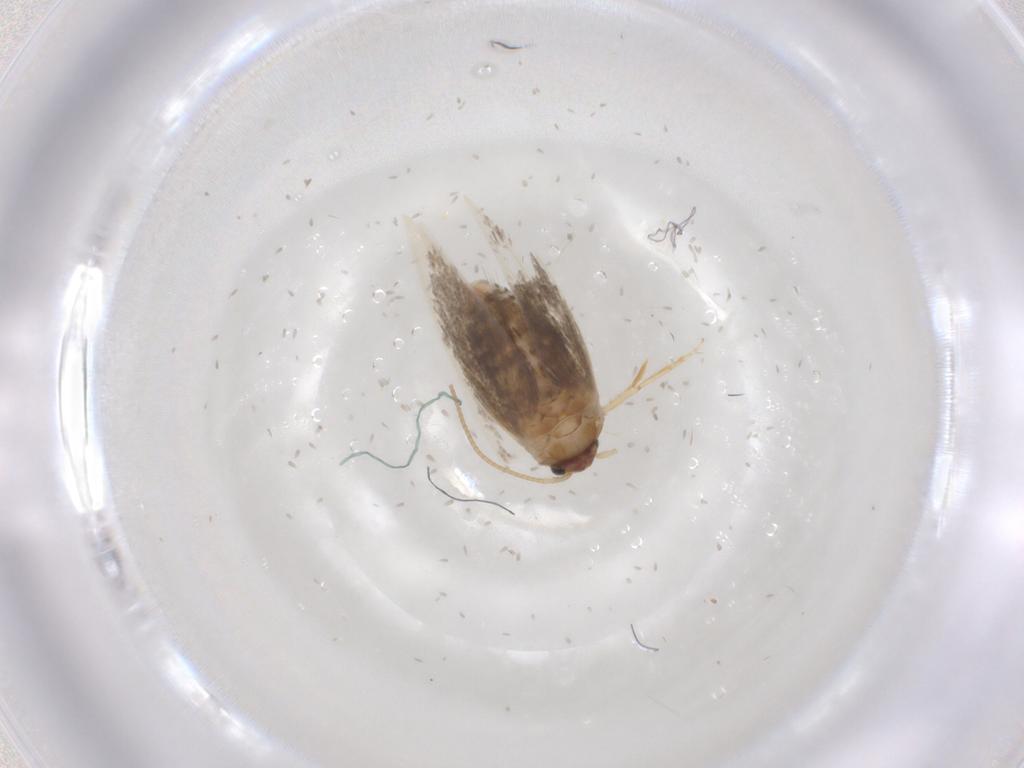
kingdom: Animalia
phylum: Arthropoda
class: Insecta
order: Lepidoptera
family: Nepticulidae
